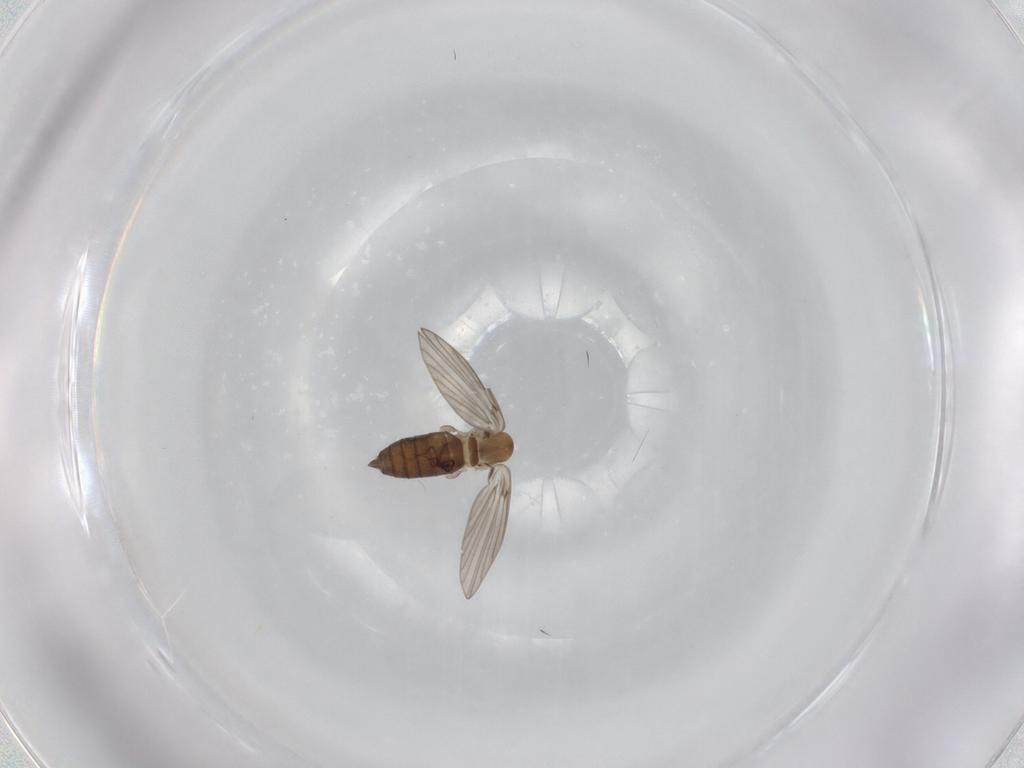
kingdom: Animalia
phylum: Arthropoda
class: Insecta
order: Diptera
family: Psychodidae
